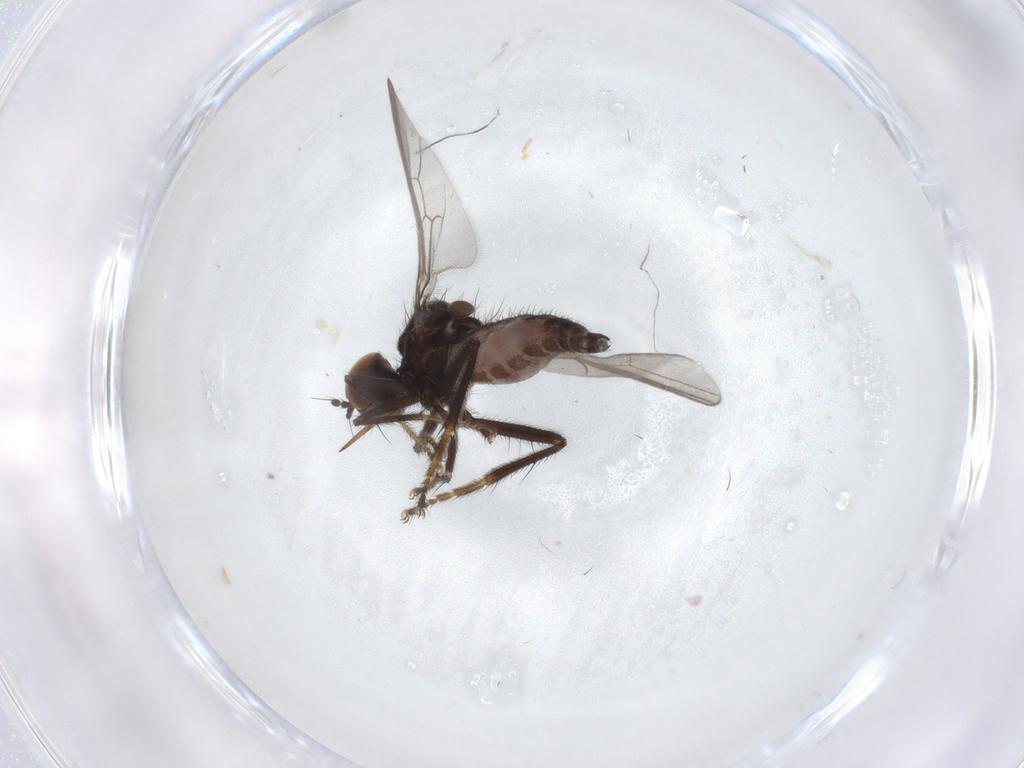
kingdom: Animalia
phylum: Arthropoda
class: Insecta
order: Diptera
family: Hybotidae
